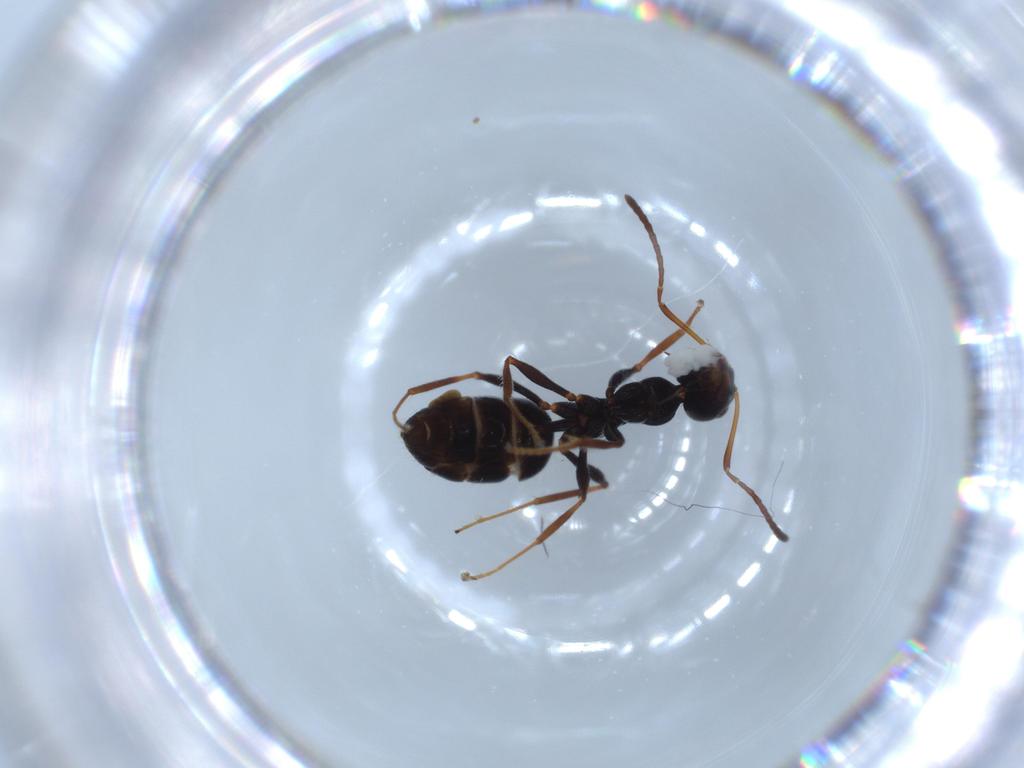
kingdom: Animalia
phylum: Arthropoda
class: Insecta
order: Hymenoptera
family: Formicidae
